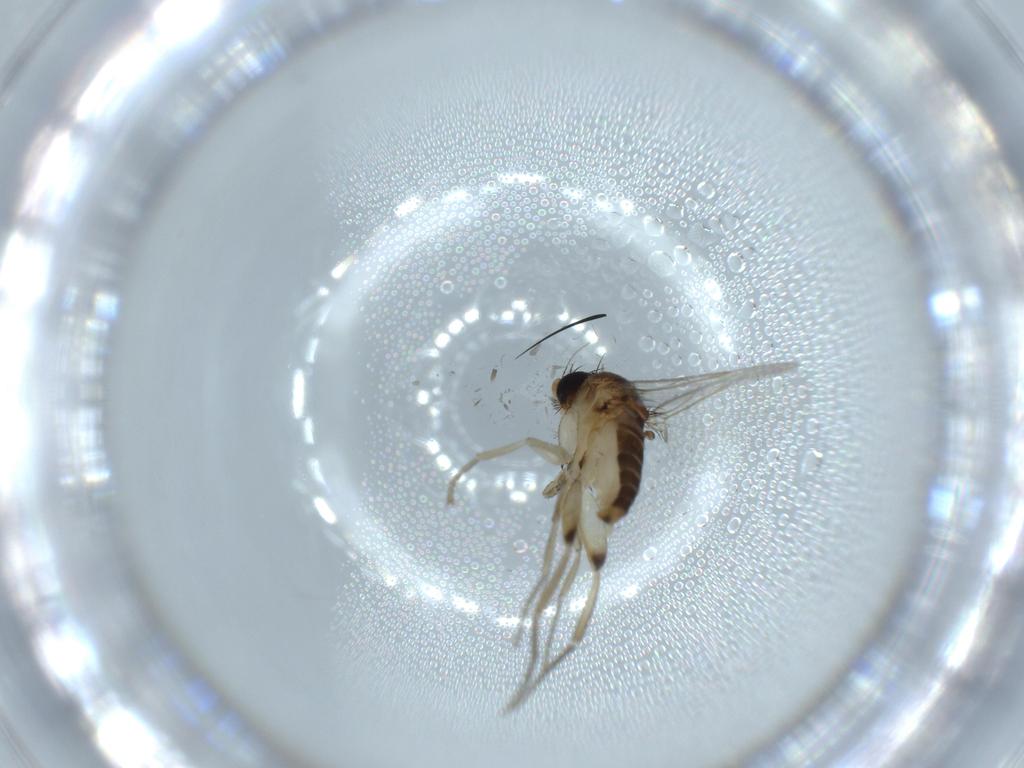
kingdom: Animalia
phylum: Arthropoda
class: Insecta
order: Diptera
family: Phoridae
